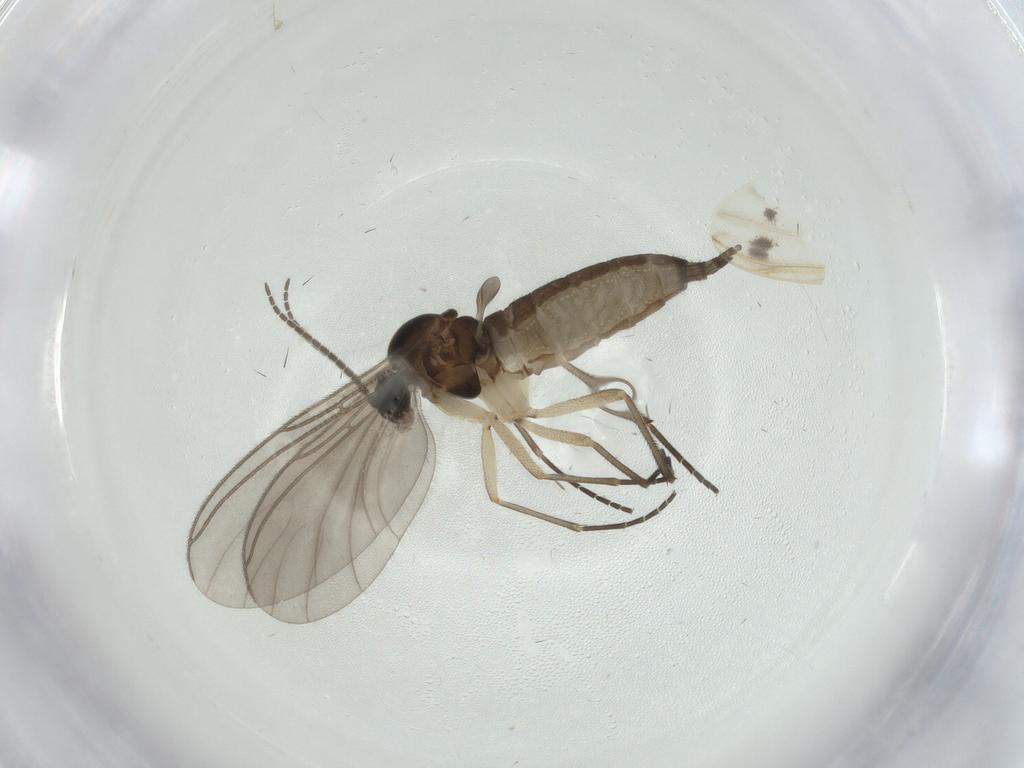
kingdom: Animalia
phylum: Arthropoda
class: Insecta
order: Diptera
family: Sciaridae
